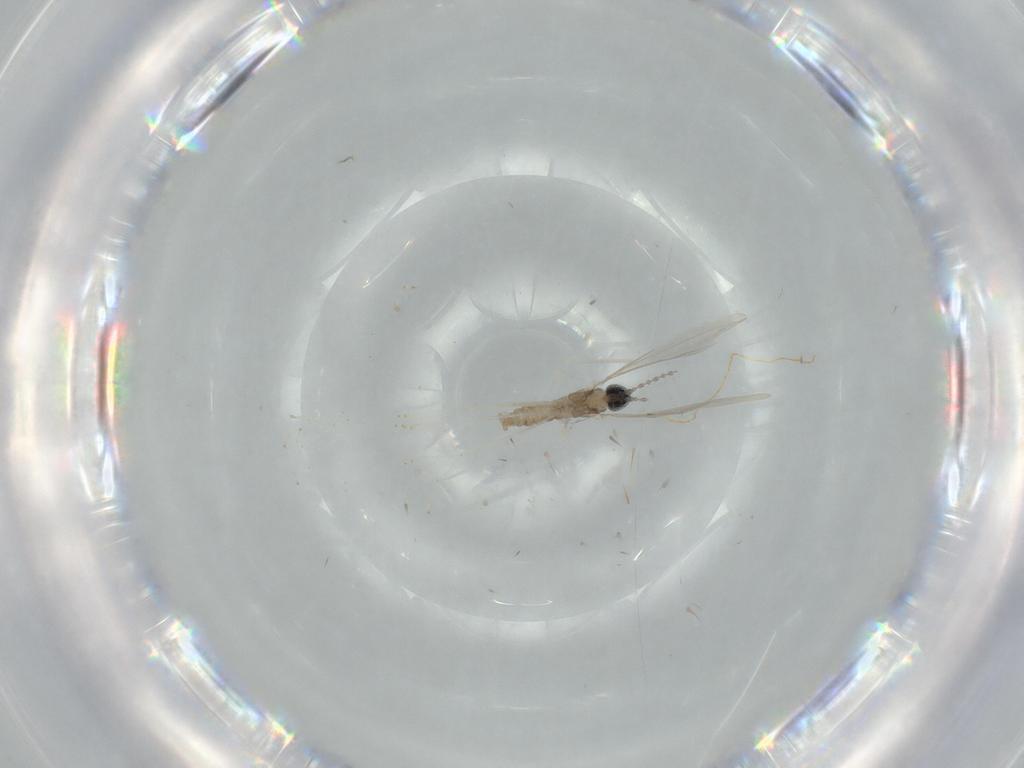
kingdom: Animalia
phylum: Arthropoda
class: Insecta
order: Diptera
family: Cecidomyiidae
